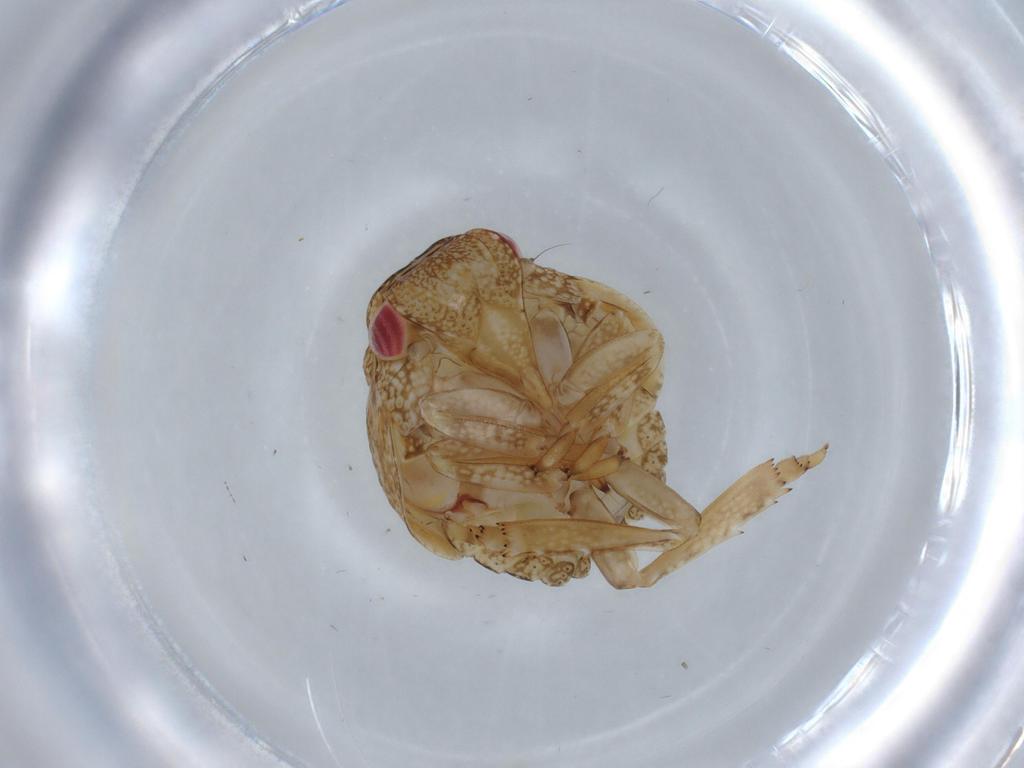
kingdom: Animalia
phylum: Arthropoda
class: Insecta
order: Hemiptera
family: Acanaloniidae
